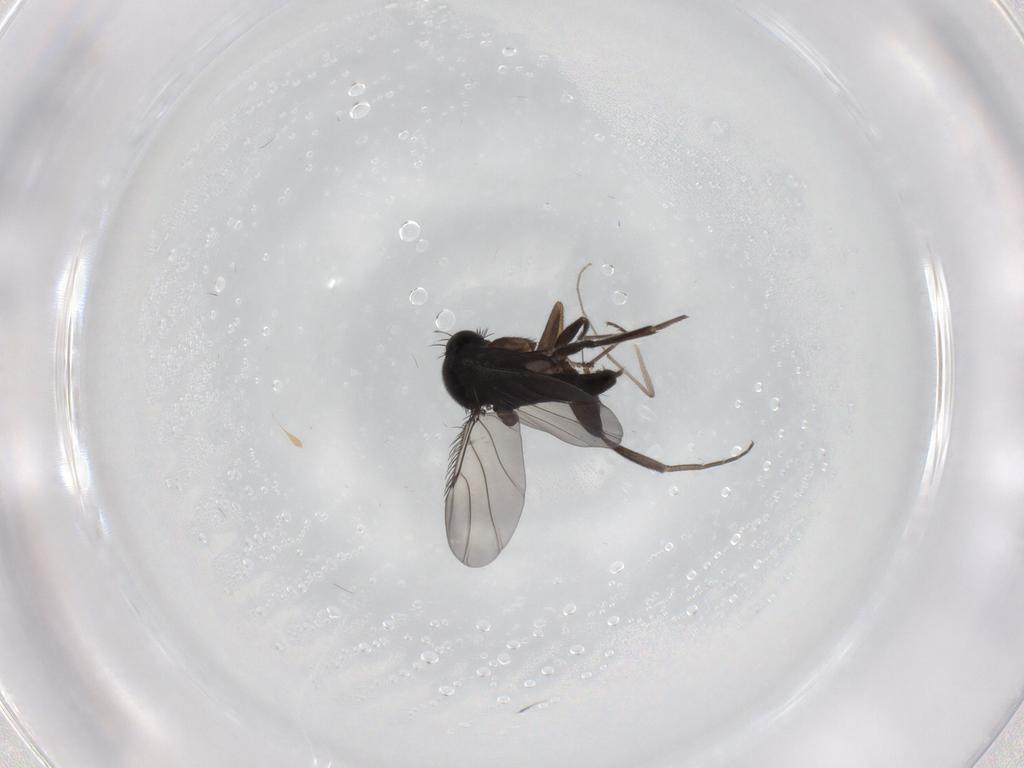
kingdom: Animalia
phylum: Arthropoda
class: Insecta
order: Diptera
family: Phoridae
